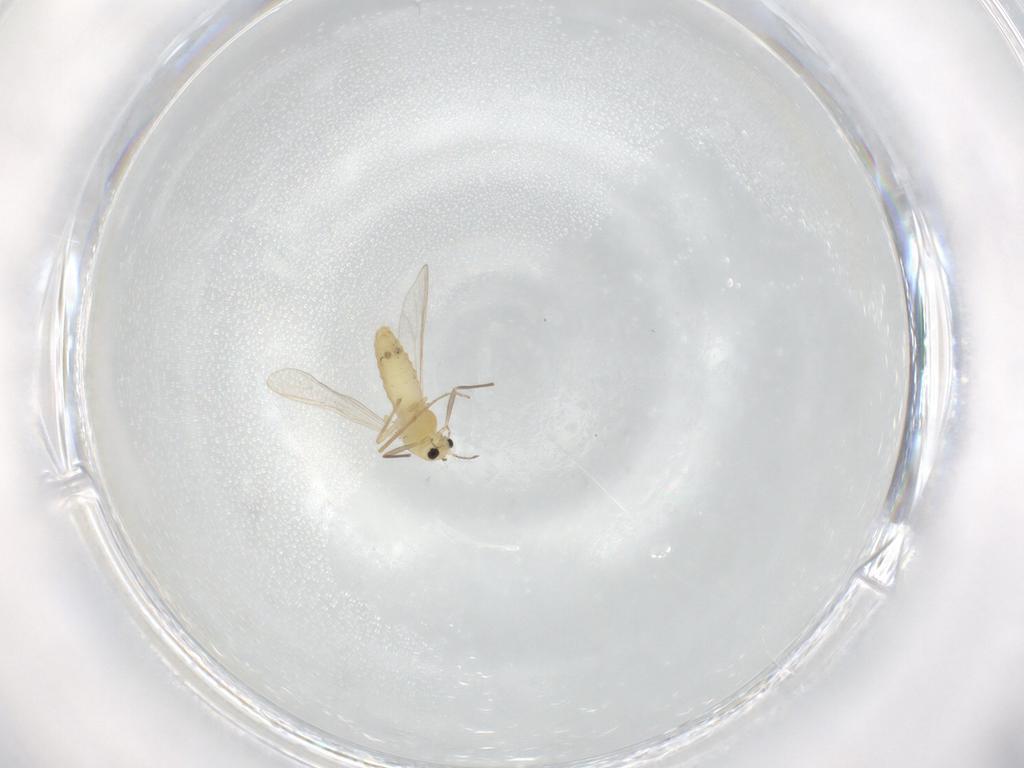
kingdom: Animalia
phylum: Arthropoda
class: Insecta
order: Diptera
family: Chironomidae
